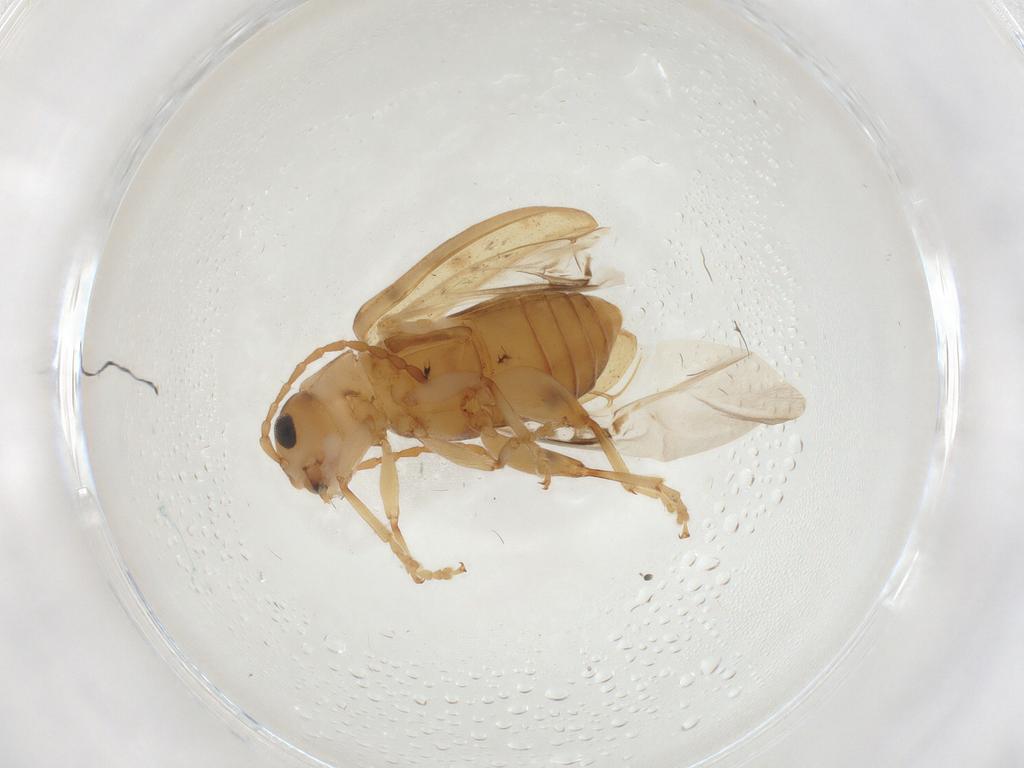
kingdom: Animalia
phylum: Arthropoda
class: Insecta
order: Coleoptera
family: Chrysomelidae
